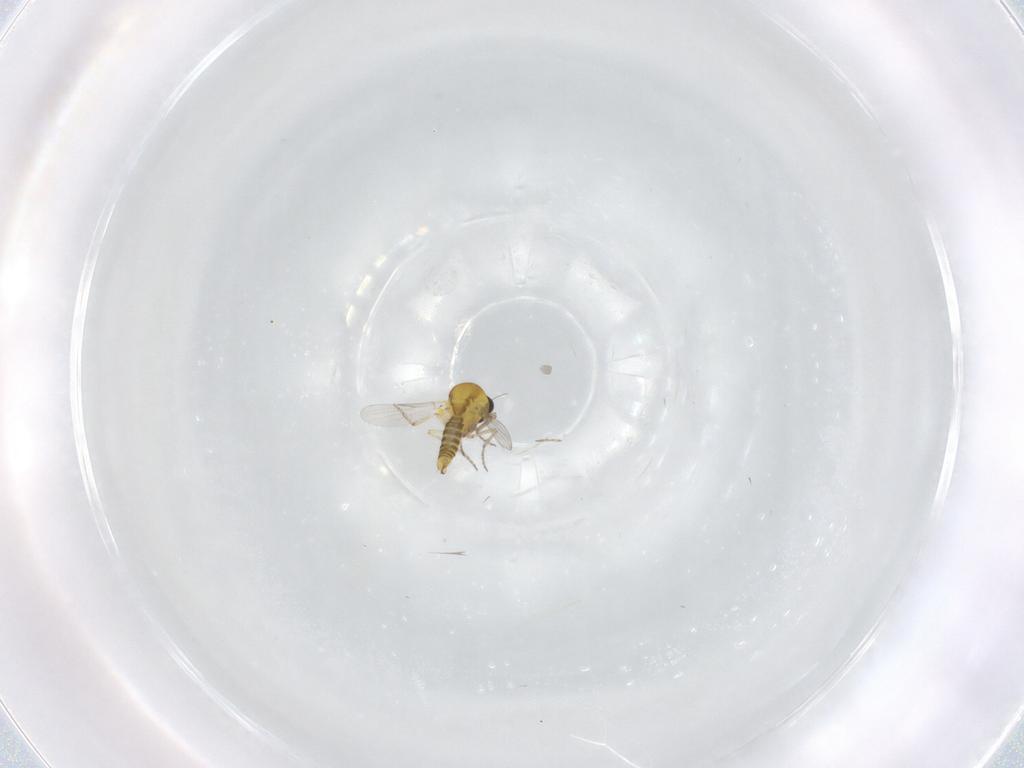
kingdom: Animalia
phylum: Arthropoda
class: Insecta
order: Diptera
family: Ceratopogonidae
